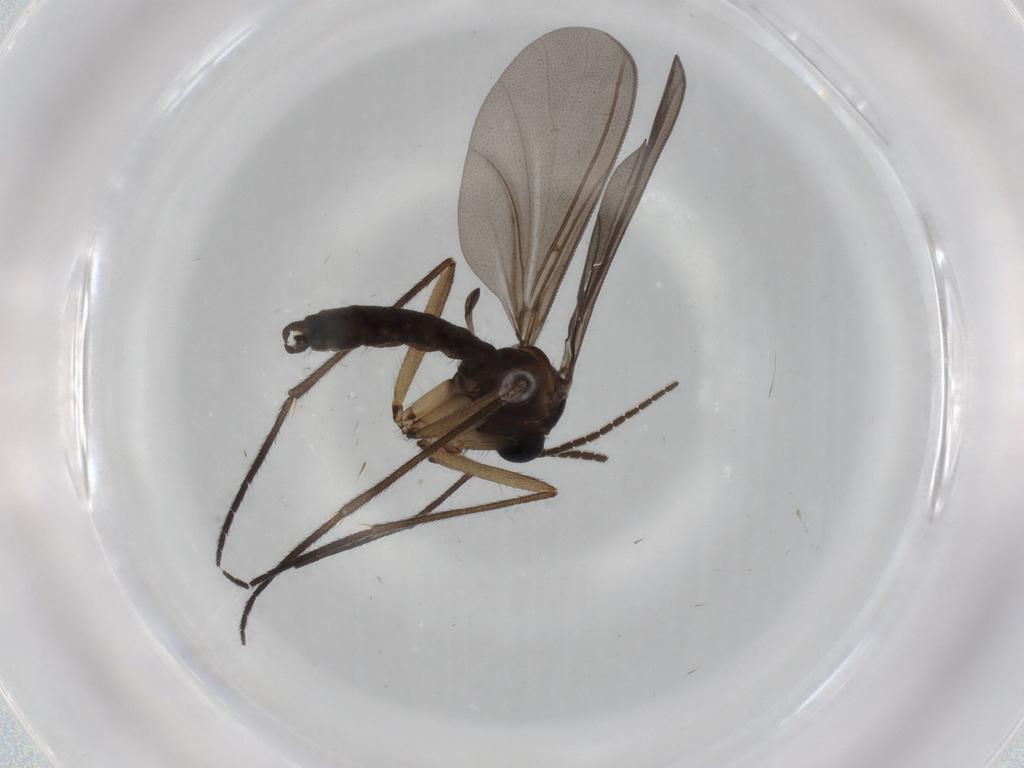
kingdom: Animalia
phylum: Arthropoda
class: Insecta
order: Diptera
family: Sciaridae
